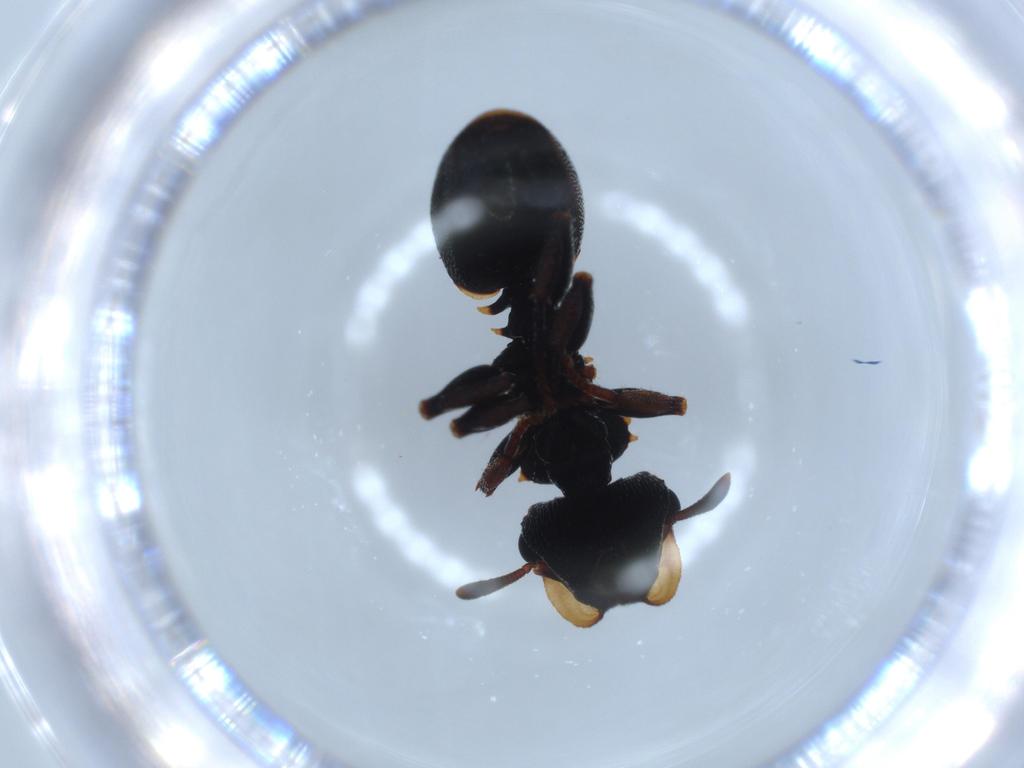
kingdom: Animalia
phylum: Arthropoda
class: Insecta
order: Hymenoptera
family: Formicidae
